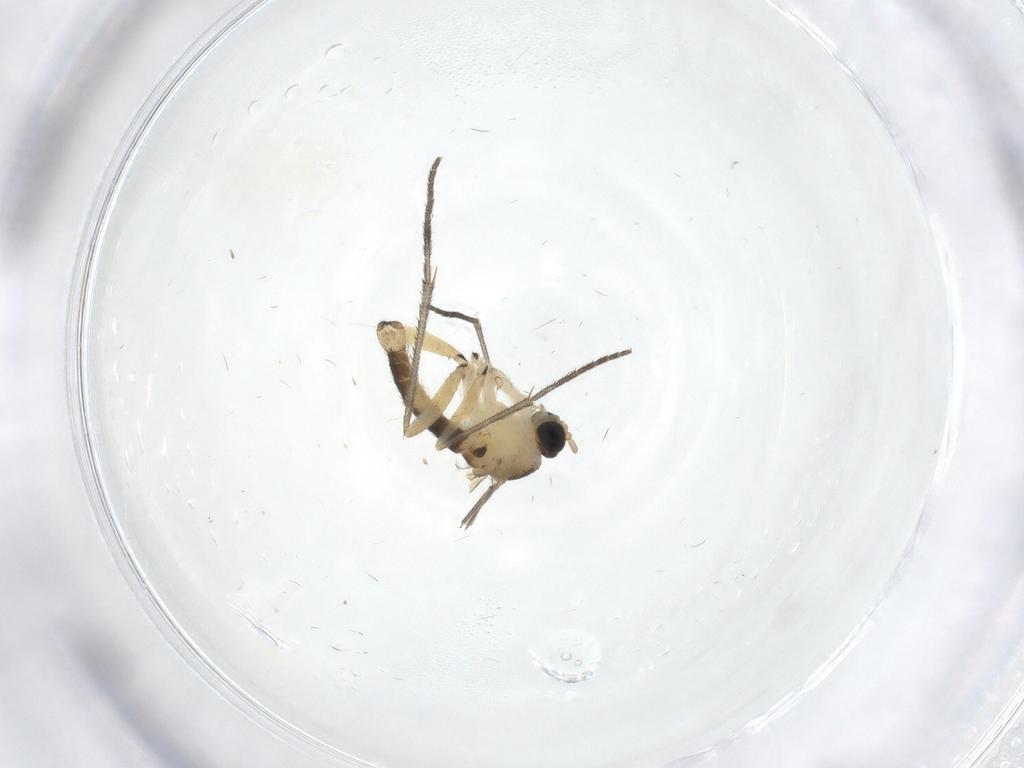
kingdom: Animalia
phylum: Arthropoda
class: Insecta
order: Diptera
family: Sciaridae
